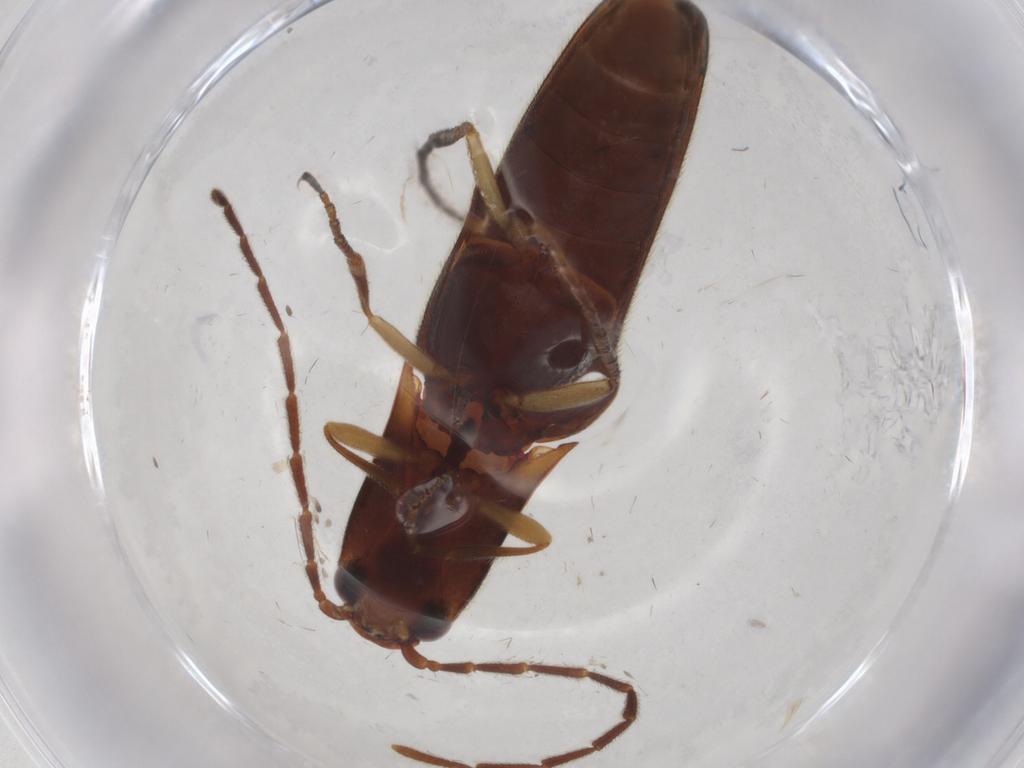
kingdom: Animalia
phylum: Arthropoda
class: Insecta
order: Coleoptera
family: Elateridae
